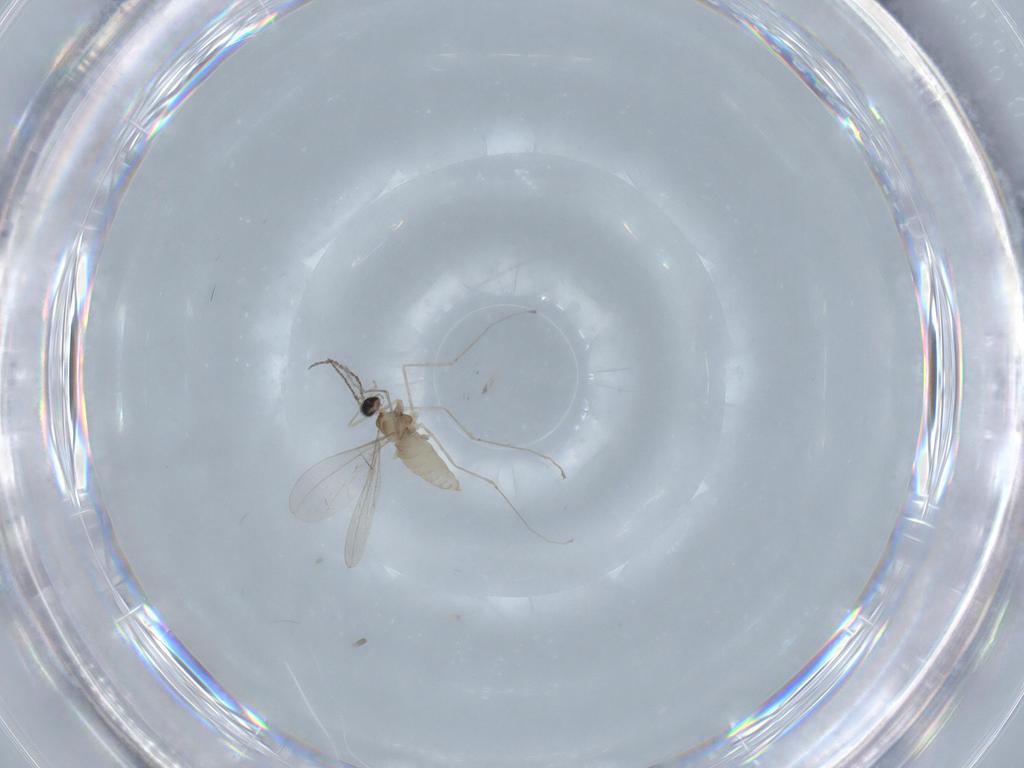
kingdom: Animalia
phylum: Arthropoda
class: Insecta
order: Diptera
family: Cecidomyiidae
